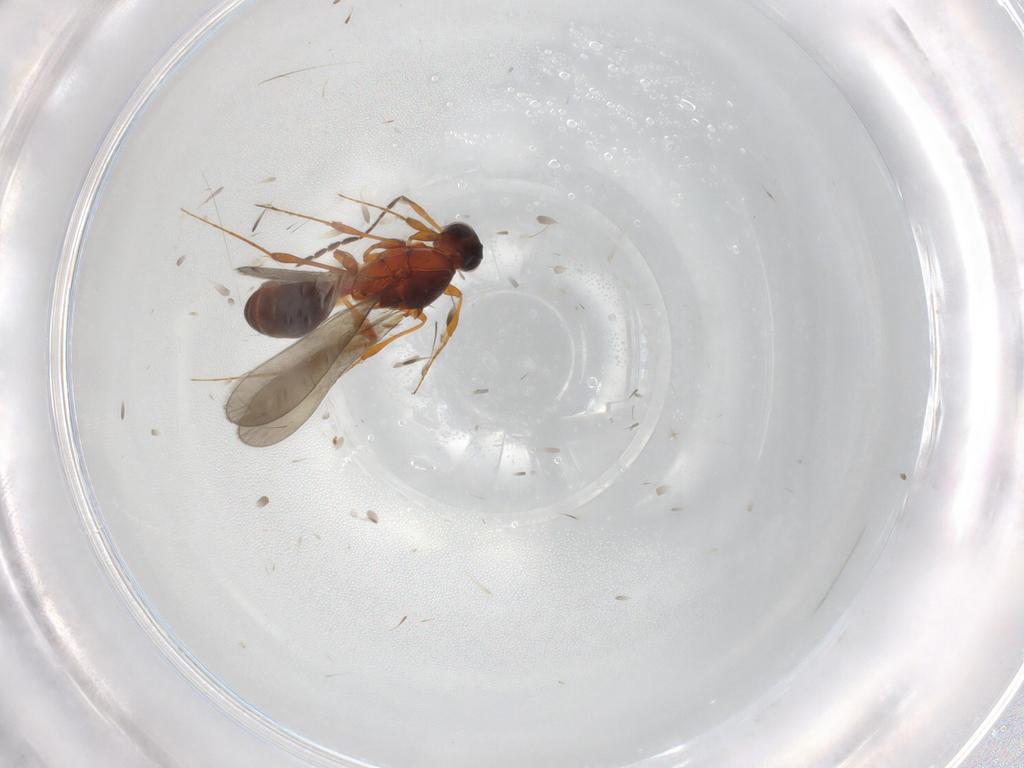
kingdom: Animalia
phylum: Arthropoda
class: Insecta
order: Hymenoptera
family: Platygastridae
